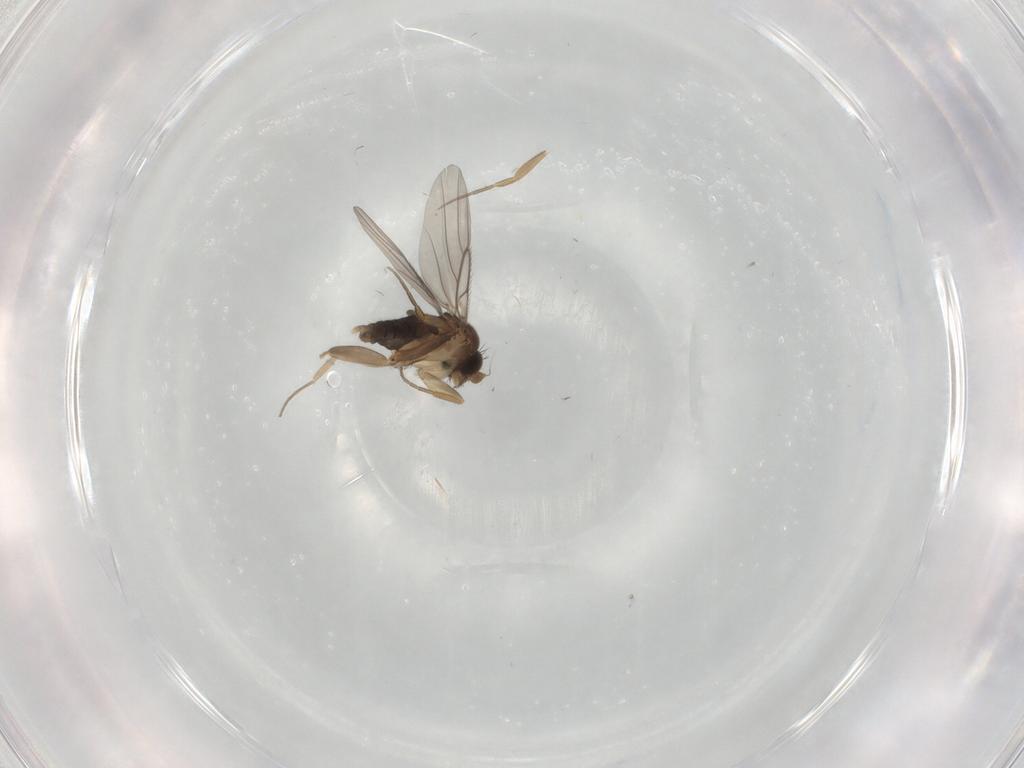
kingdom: Animalia
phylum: Arthropoda
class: Insecta
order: Diptera
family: Phoridae
